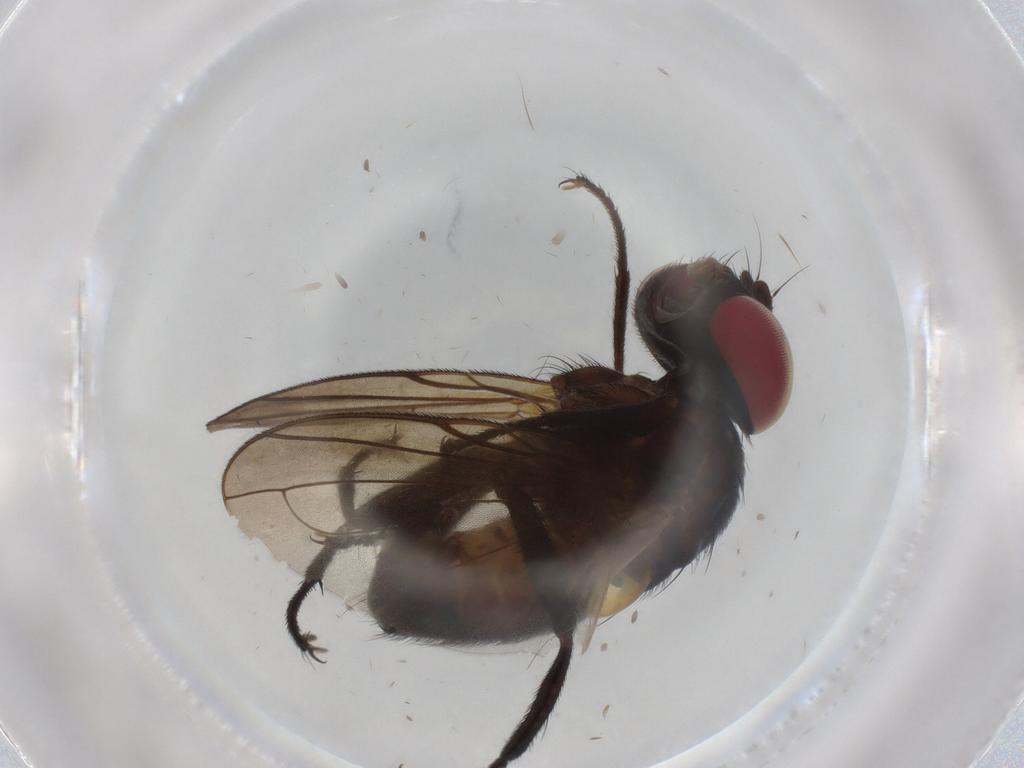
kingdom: Animalia
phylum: Arthropoda
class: Insecta
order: Diptera
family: Tachinidae
